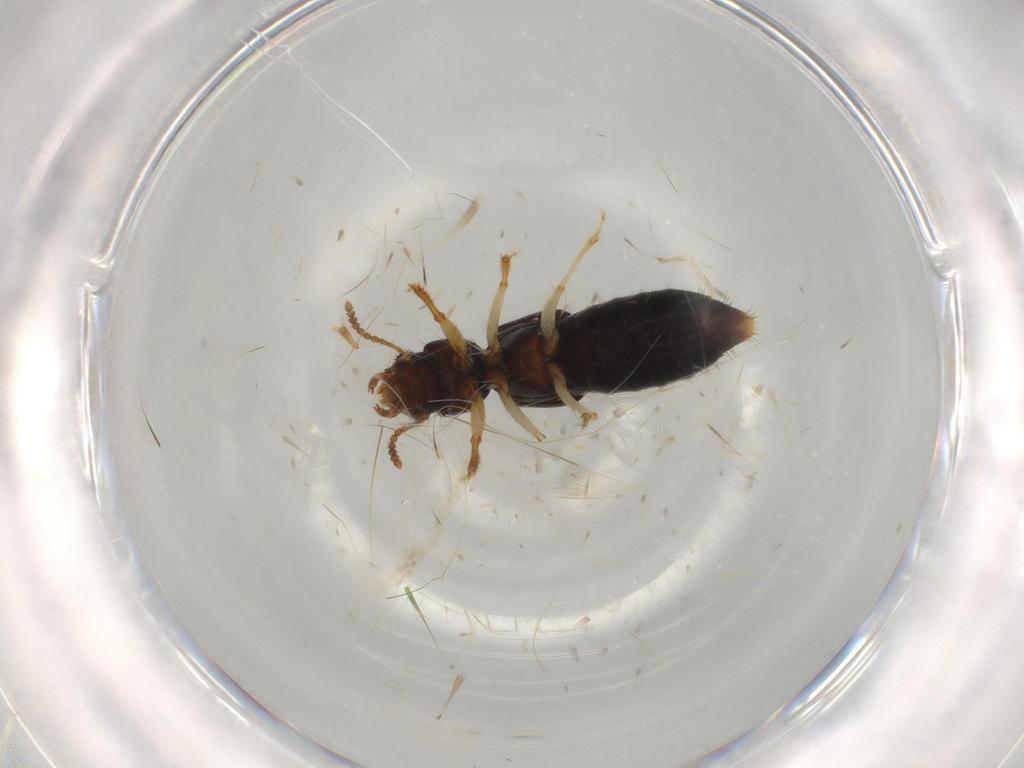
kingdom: Animalia
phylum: Arthropoda
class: Insecta
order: Coleoptera
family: Staphylinidae
